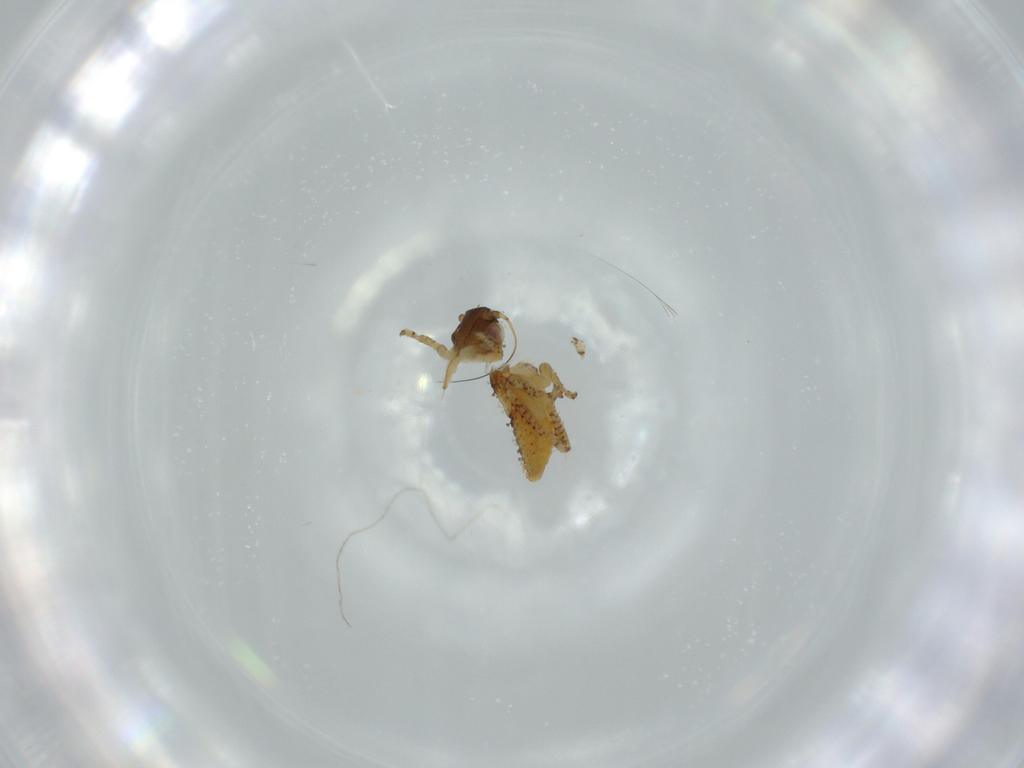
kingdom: Animalia
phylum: Arthropoda
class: Insecta
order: Hemiptera
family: Cicadellidae
